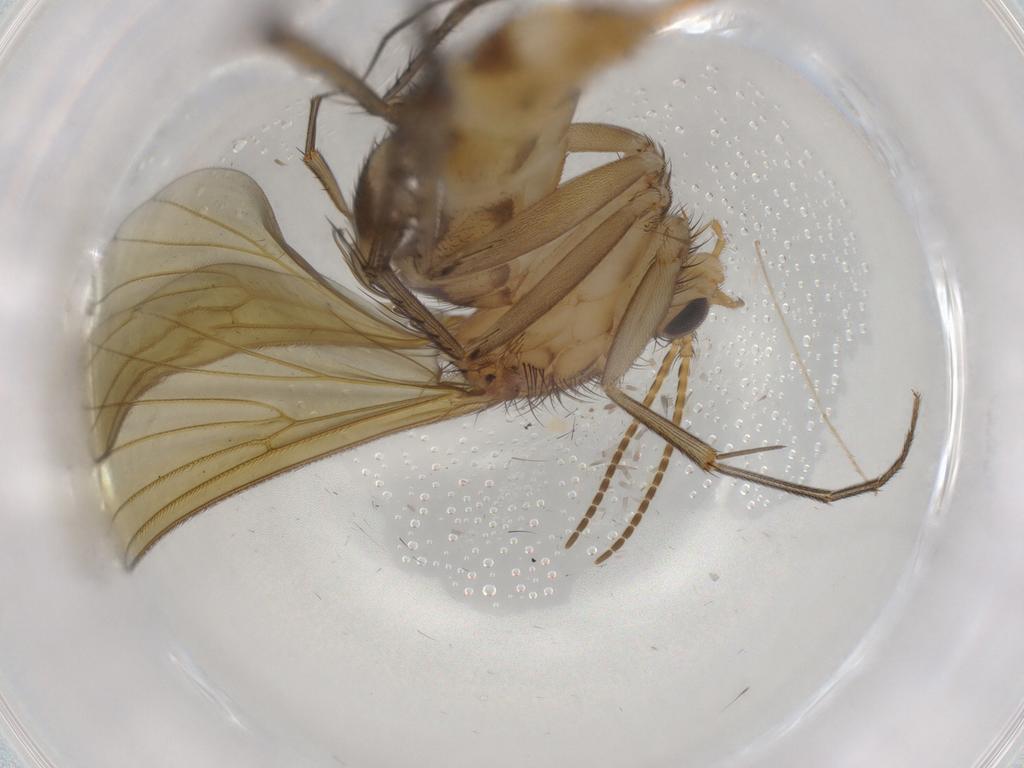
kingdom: Animalia
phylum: Arthropoda
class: Insecta
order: Diptera
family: Mycetophilidae
